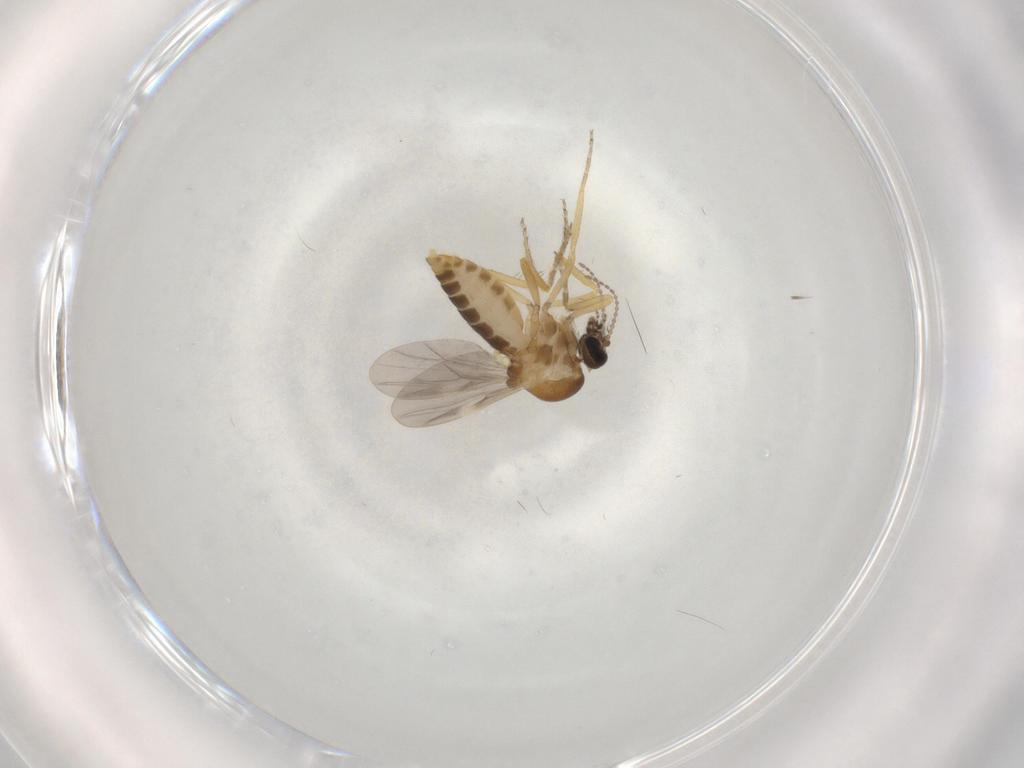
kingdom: Animalia
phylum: Arthropoda
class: Insecta
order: Diptera
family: Ceratopogonidae
